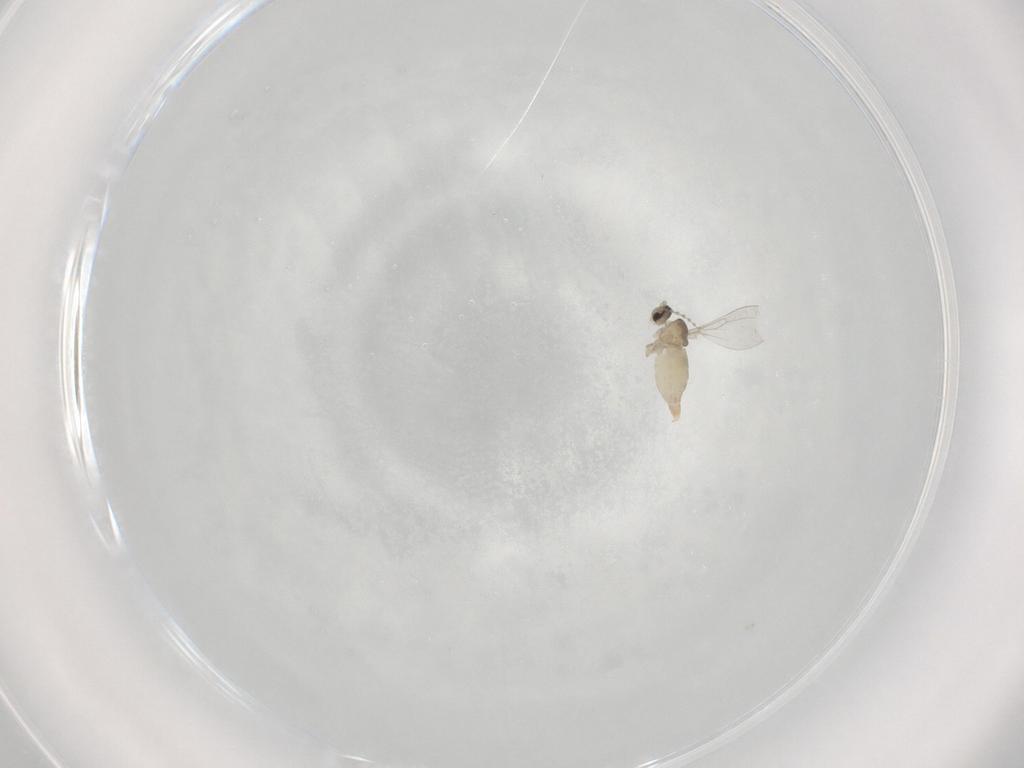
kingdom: Animalia
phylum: Arthropoda
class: Insecta
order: Diptera
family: Cecidomyiidae
